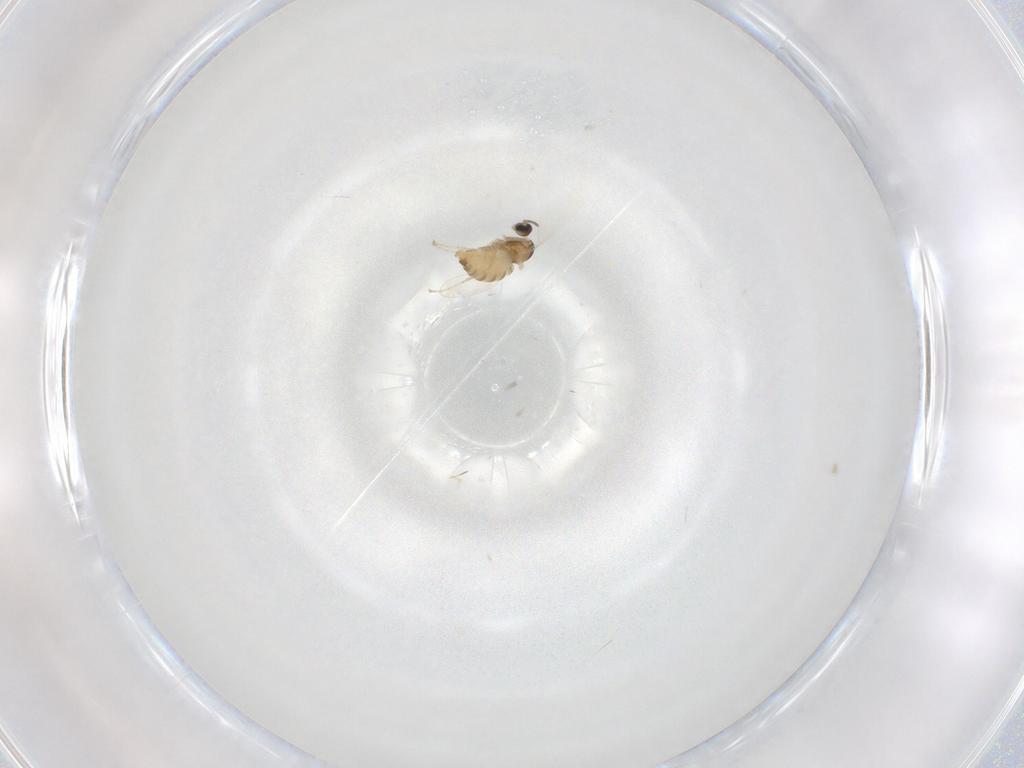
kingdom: Animalia
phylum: Arthropoda
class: Insecta
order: Diptera
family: Cecidomyiidae
